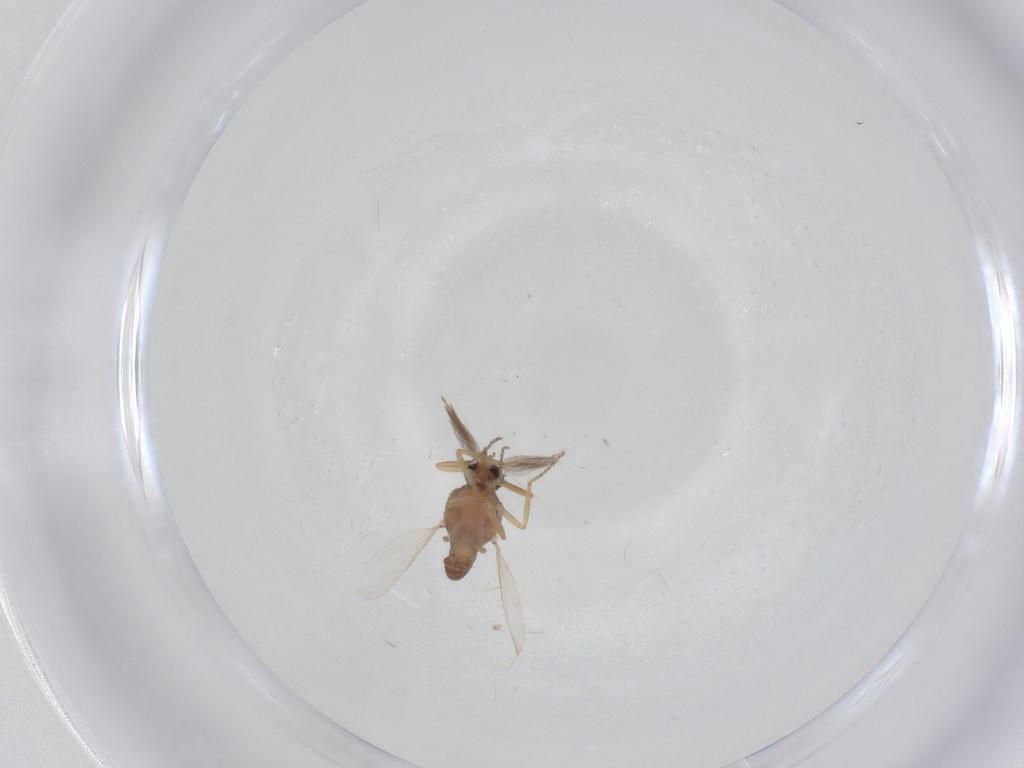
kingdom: Animalia
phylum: Arthropoda
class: Insecta
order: Diptera
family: Ceratopogonidae
